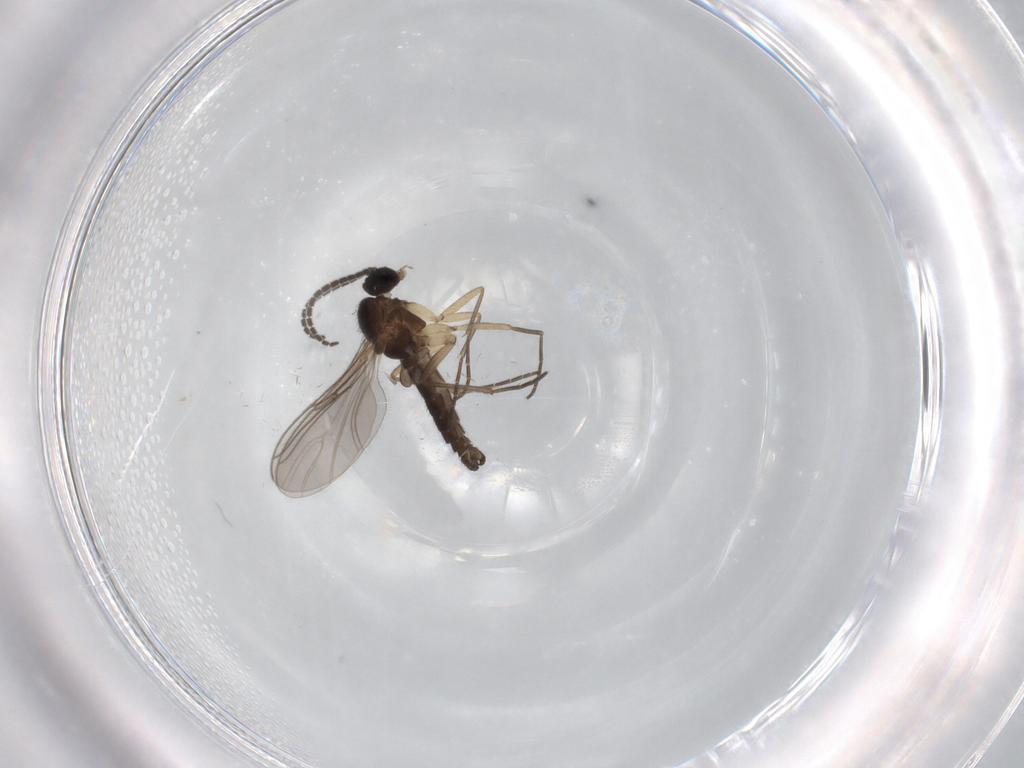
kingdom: Animalia
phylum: Arthropoda
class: Insecta
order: Diptera
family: Sciaridae
